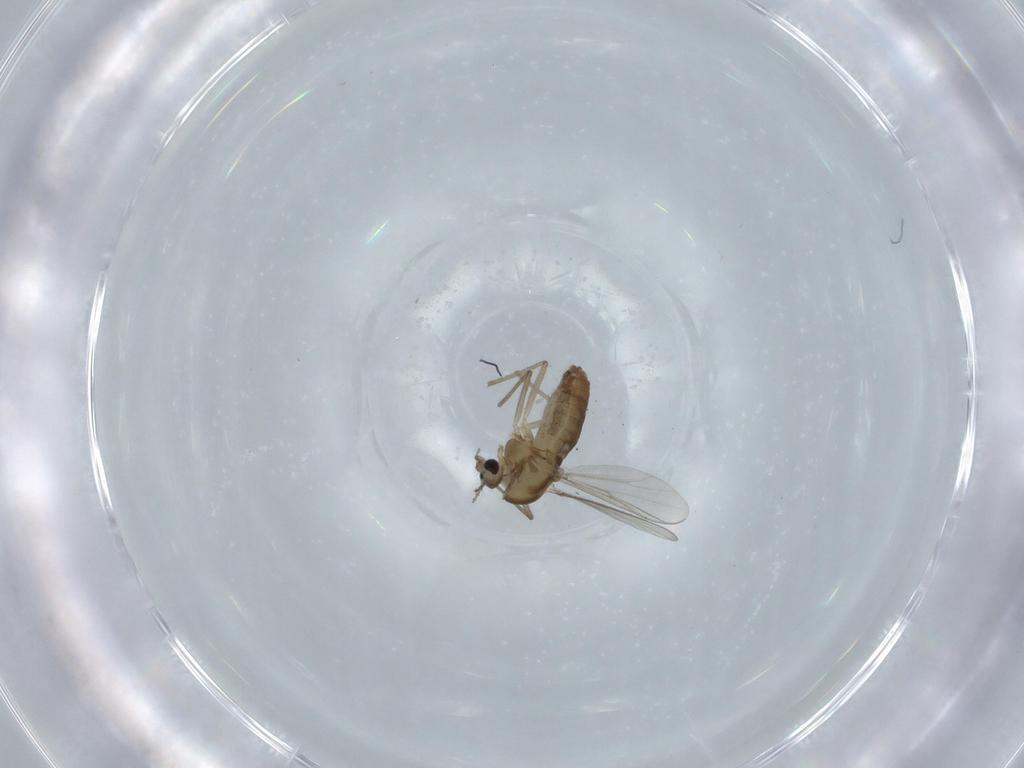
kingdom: Animalia
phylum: Arthropoda
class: Insecta
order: Diptera
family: Chironomidae
